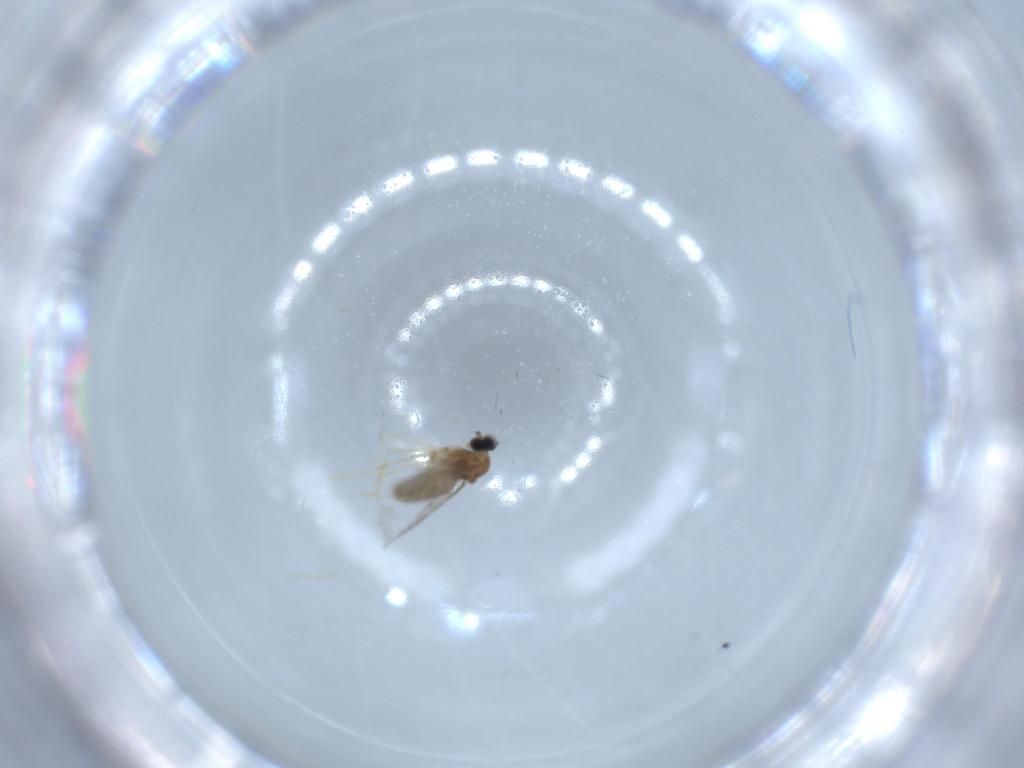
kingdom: Animalia
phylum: Arthropoda
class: Insecta
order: Diptera
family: Cecidomyiidae
